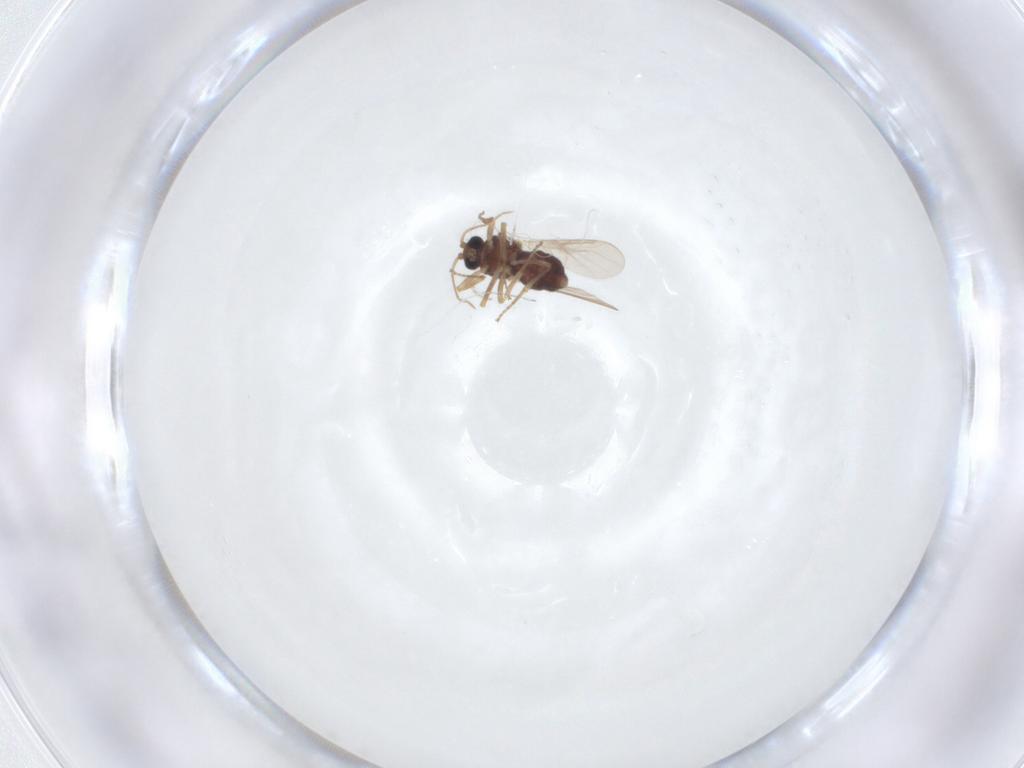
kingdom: Animalia
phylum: Arthropoda
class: Insecta
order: Diptera
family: Ceratopogonidae
